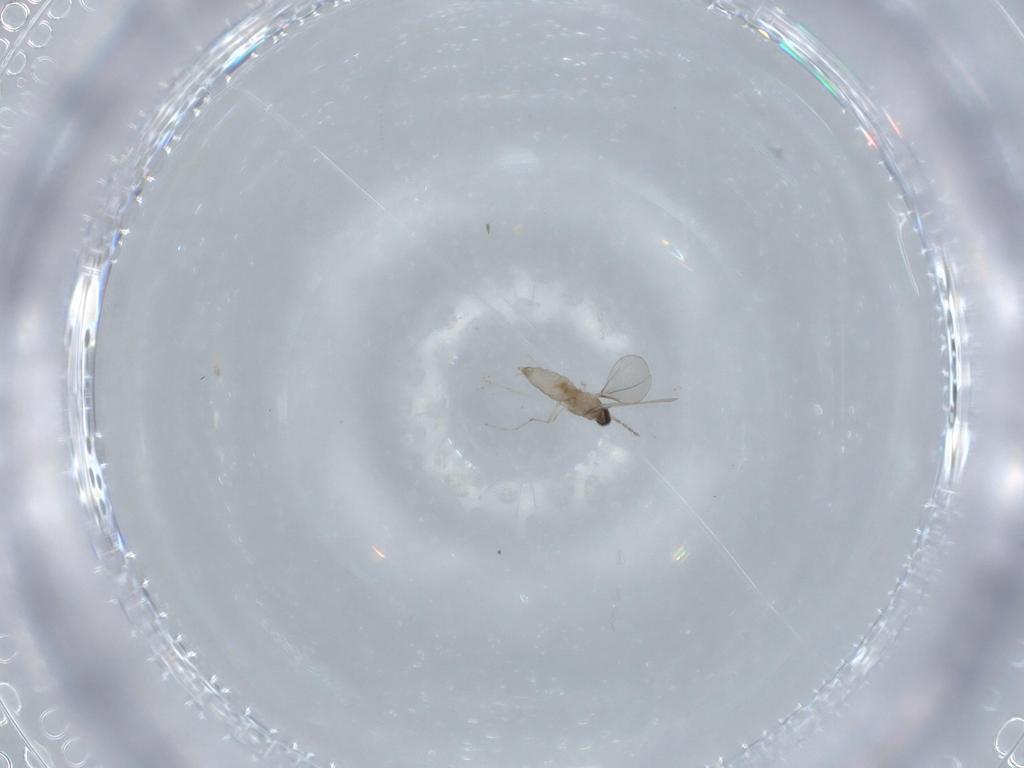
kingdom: Animalia
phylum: Arthropoda
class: Insecta
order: Diptera
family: Cecidomyiidae
